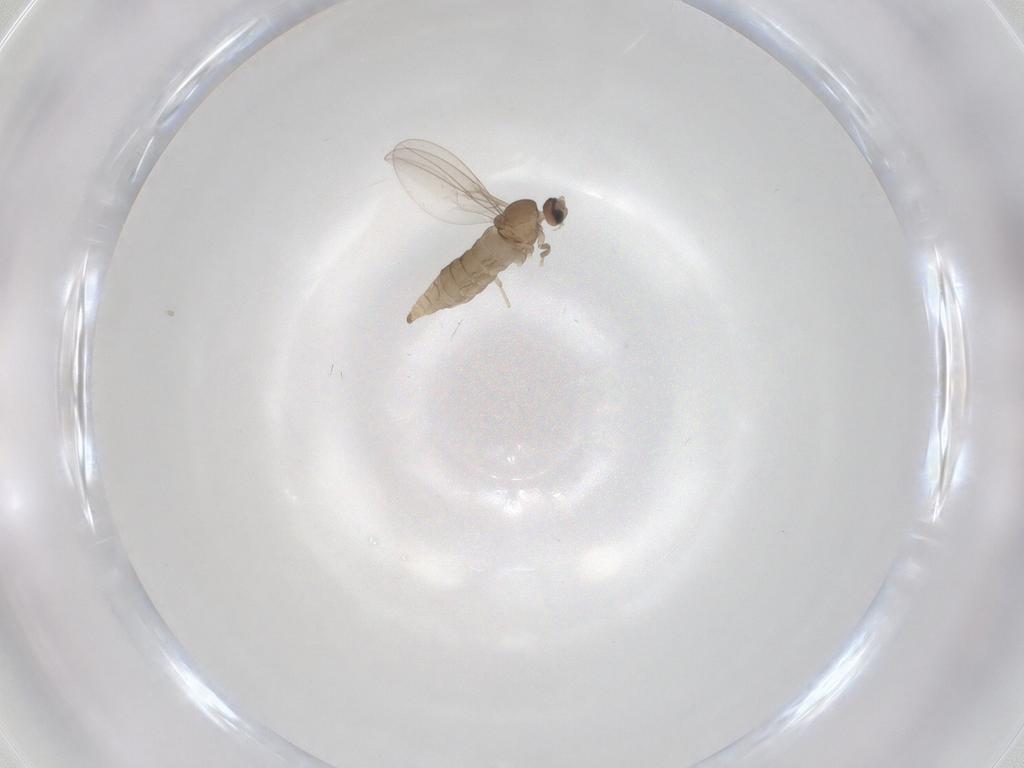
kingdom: Animalia
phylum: Arthropoda
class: Insecta
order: Diptera
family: Cecidomyiidae
